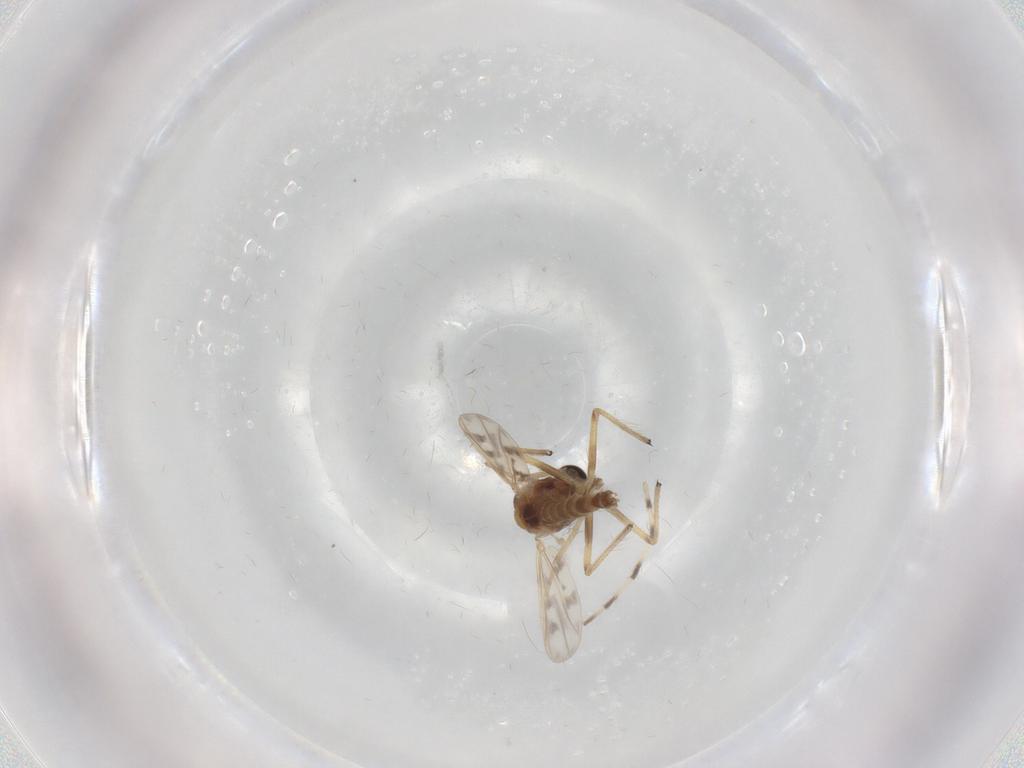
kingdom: Animalia
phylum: Arthropoda
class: Insecta
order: Diptera
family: Chironomidae
